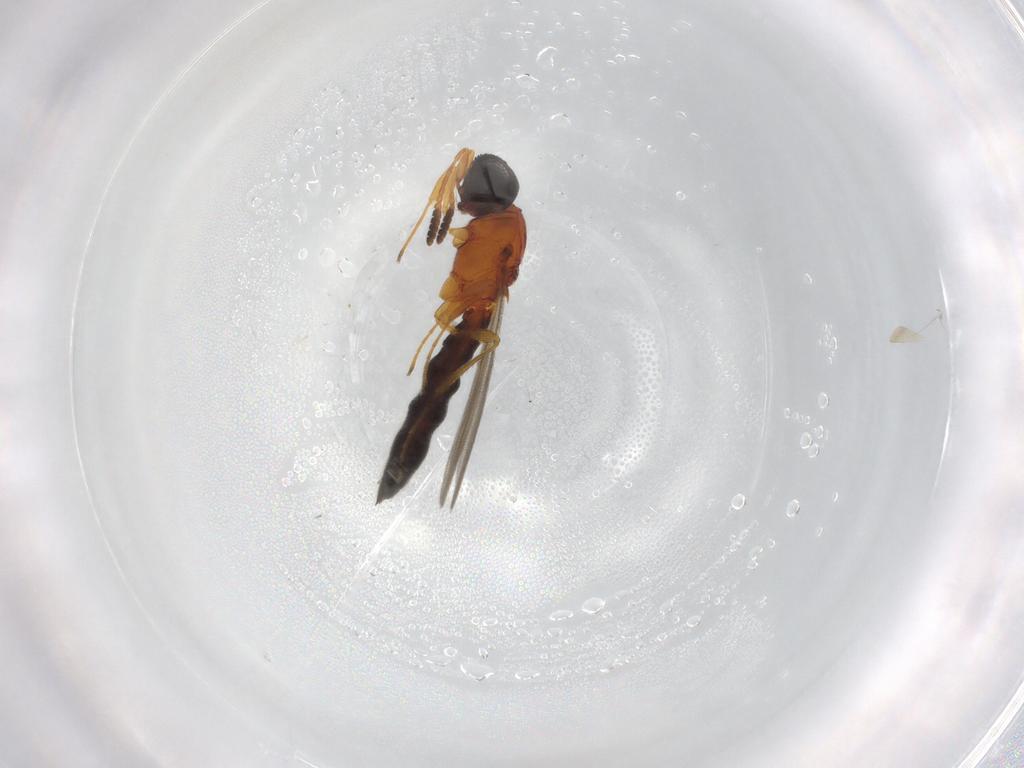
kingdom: Animalia
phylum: Arthropoda
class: Insecta
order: Hymenoptera
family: Scelionidae
